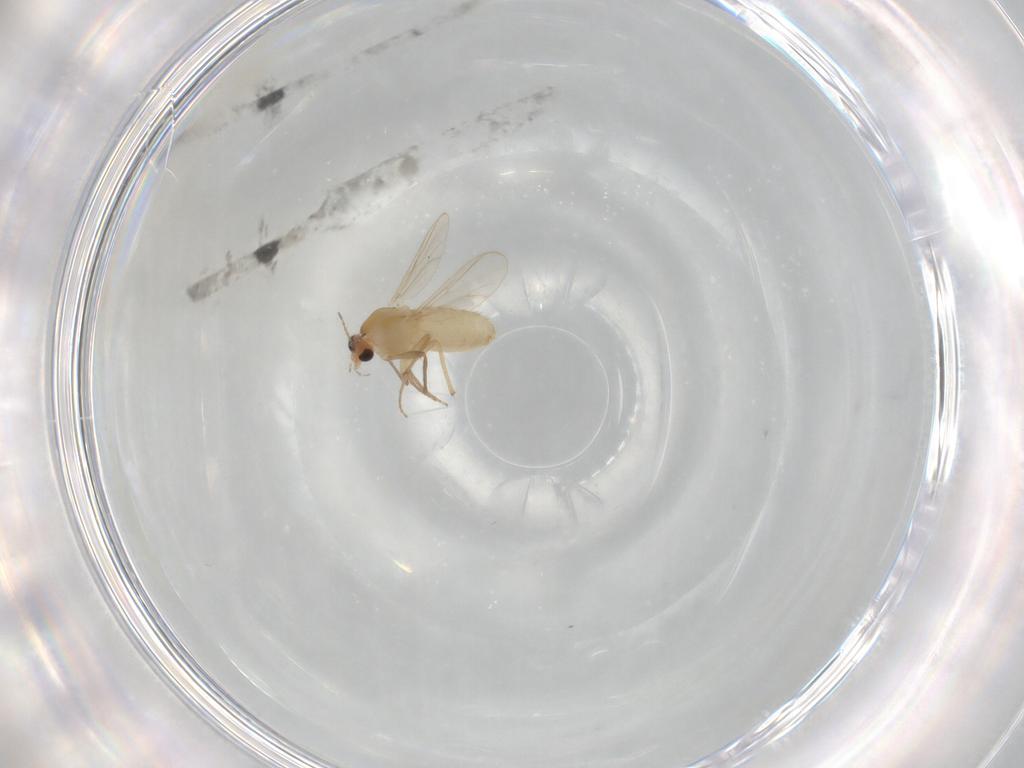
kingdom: Animalia
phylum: Arthropoda
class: Insecta
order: Diptera
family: Chironomidae
